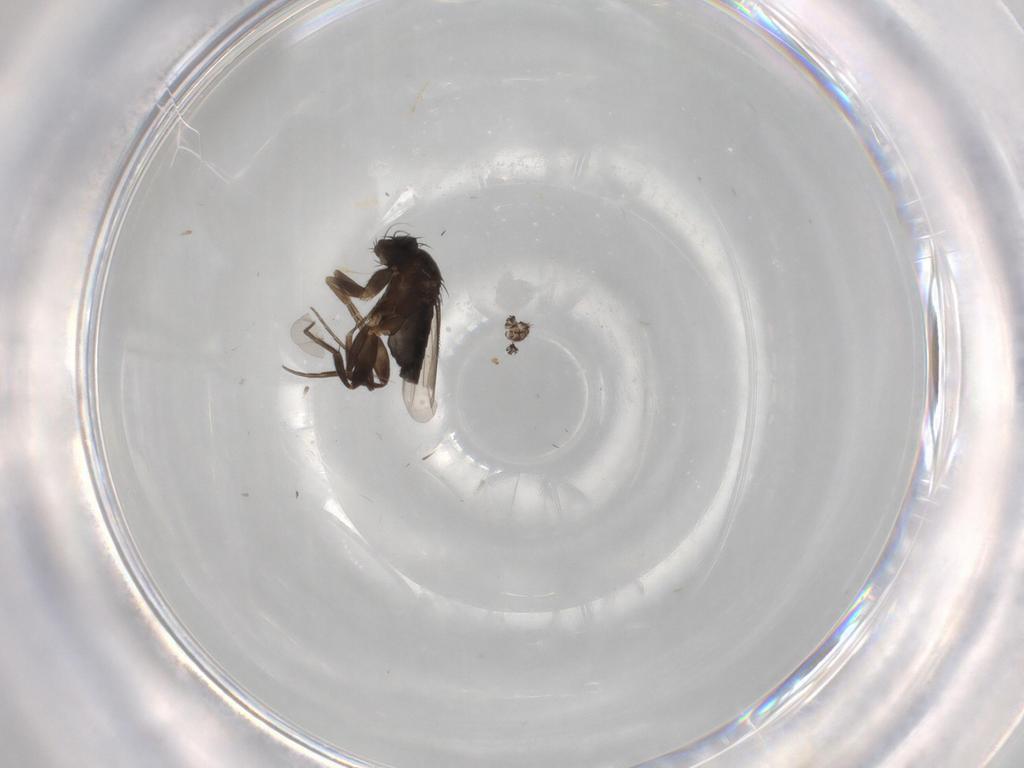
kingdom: Animalia
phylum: Arthropoda
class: Insecta
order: Diptera
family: Phoridae
